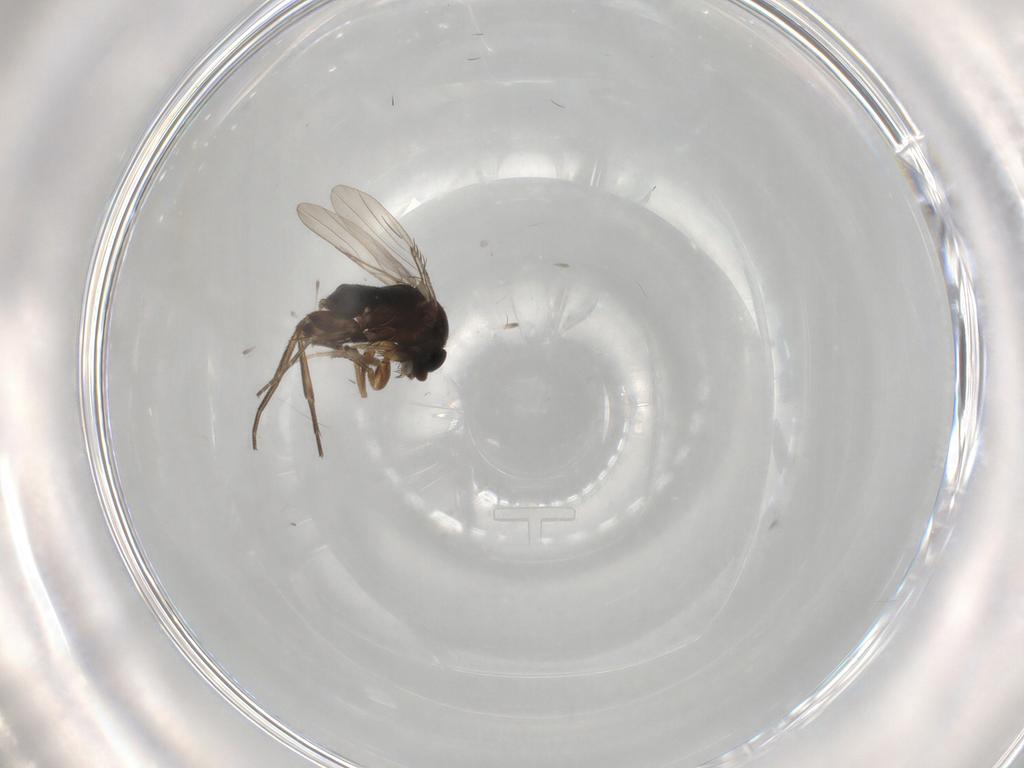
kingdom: Animalia
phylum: Arthropoda
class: Insecta
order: Diptera
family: Phoridae
